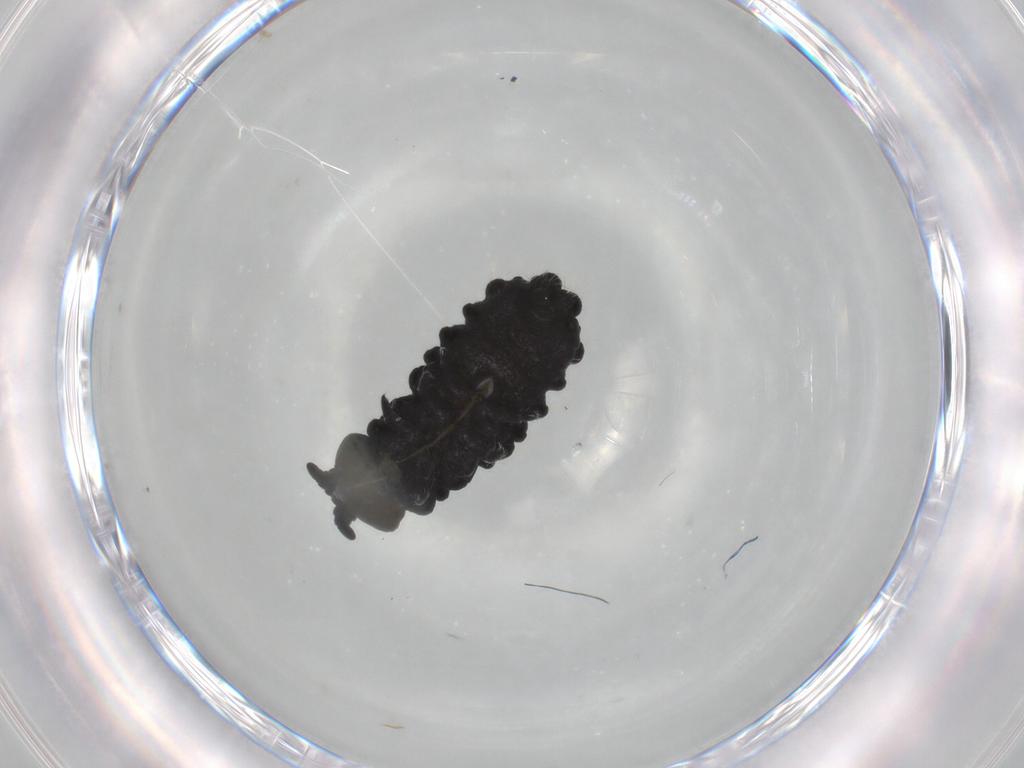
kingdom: Animalia
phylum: Arthropoda
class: Collembola
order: Poduromorpha
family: Neanuridae
